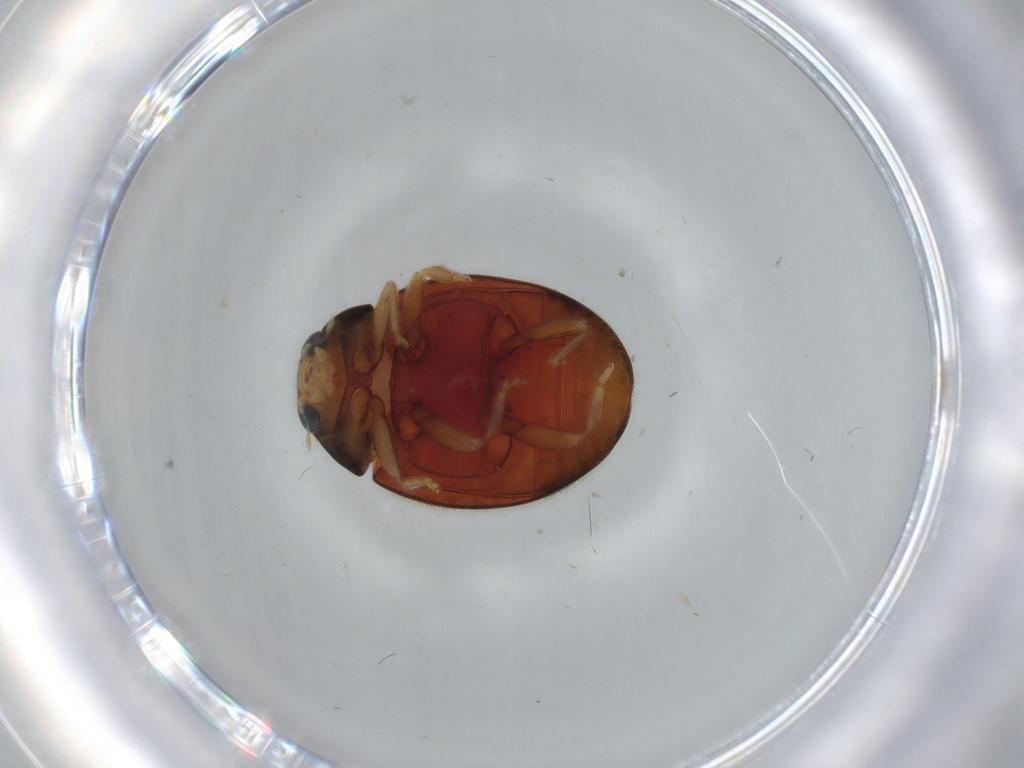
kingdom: Animalia
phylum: Arthropoda
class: Insecta
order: Coleoptera
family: Coccinellidae
